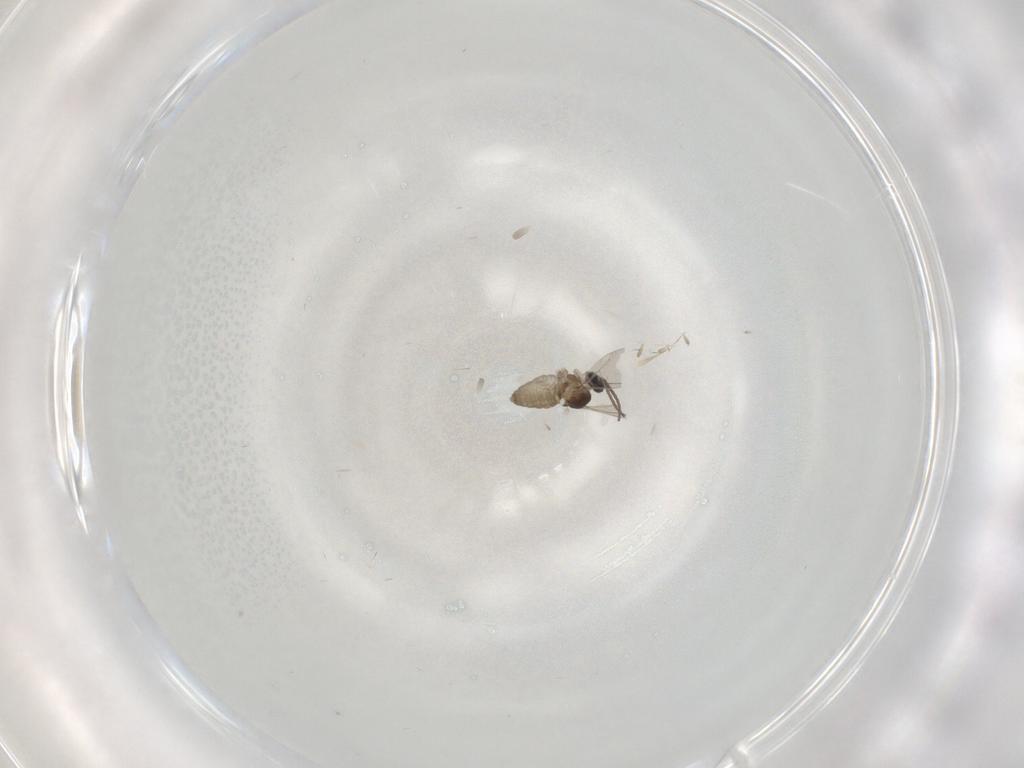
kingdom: Animalia
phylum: Arthropoda
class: Insecta
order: Diptera
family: Cecidomyiidae
